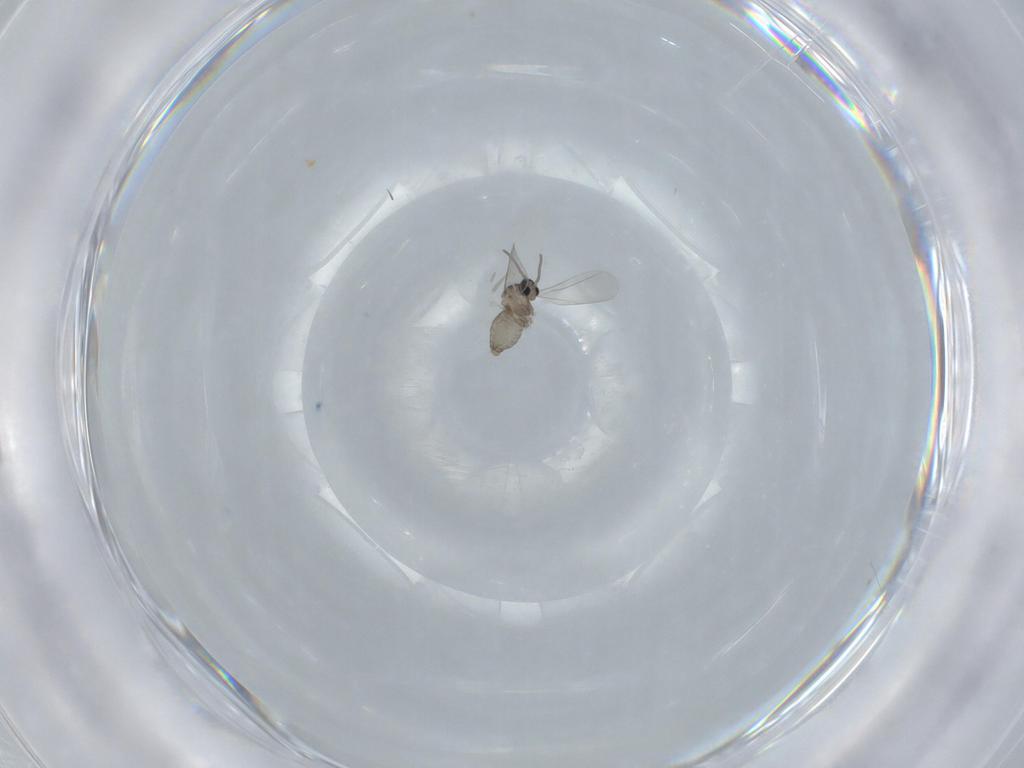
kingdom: Animalia
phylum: Arthropoda
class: Insecta
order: Diptera
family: Cecidomyiidae
